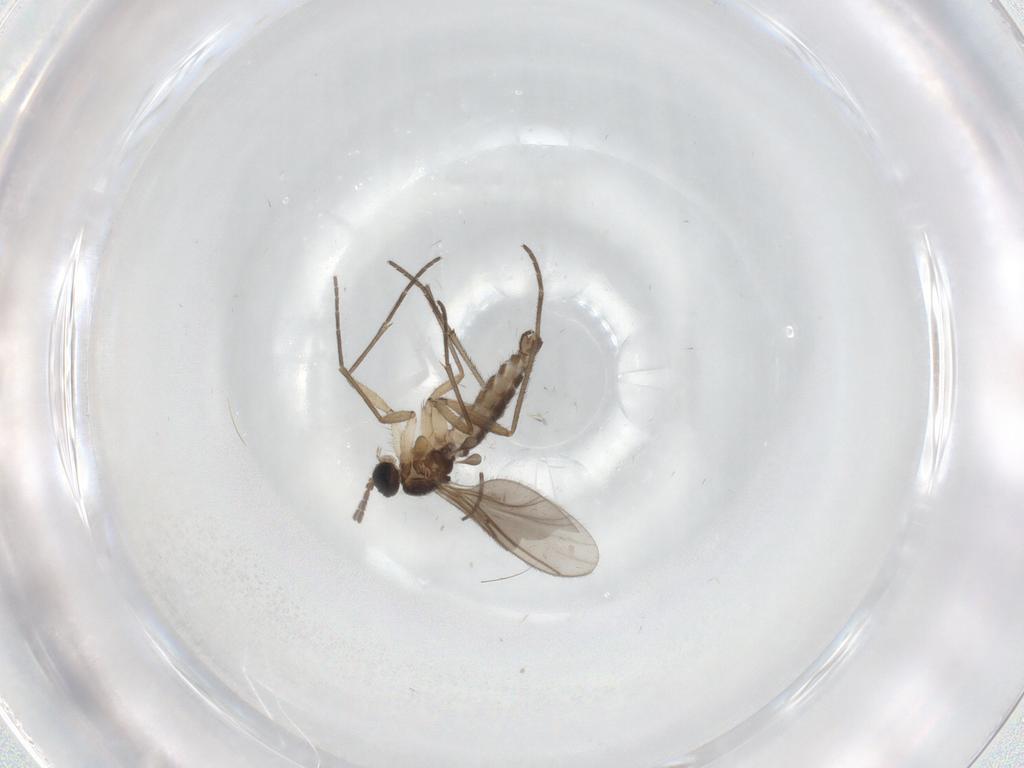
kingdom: Animalia
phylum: Arthropoda
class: Insecta
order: Diptera
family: Sciaridae
